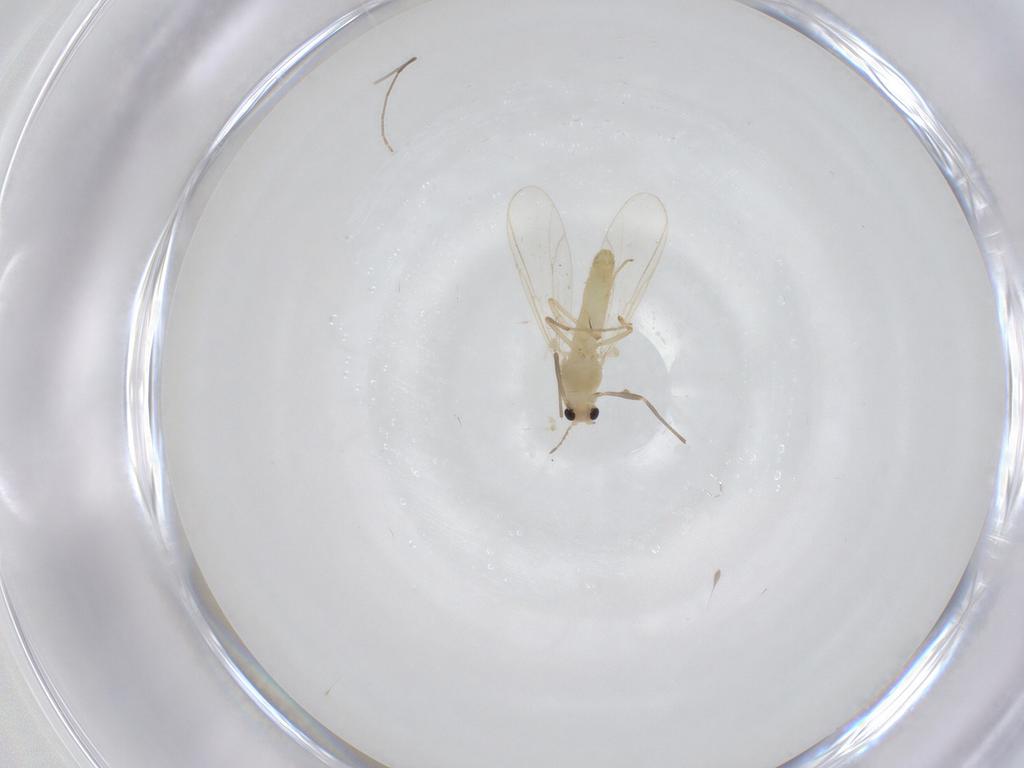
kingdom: Animalia
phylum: Arthropoda
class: Insecta
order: Diptera
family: Chironomidae
